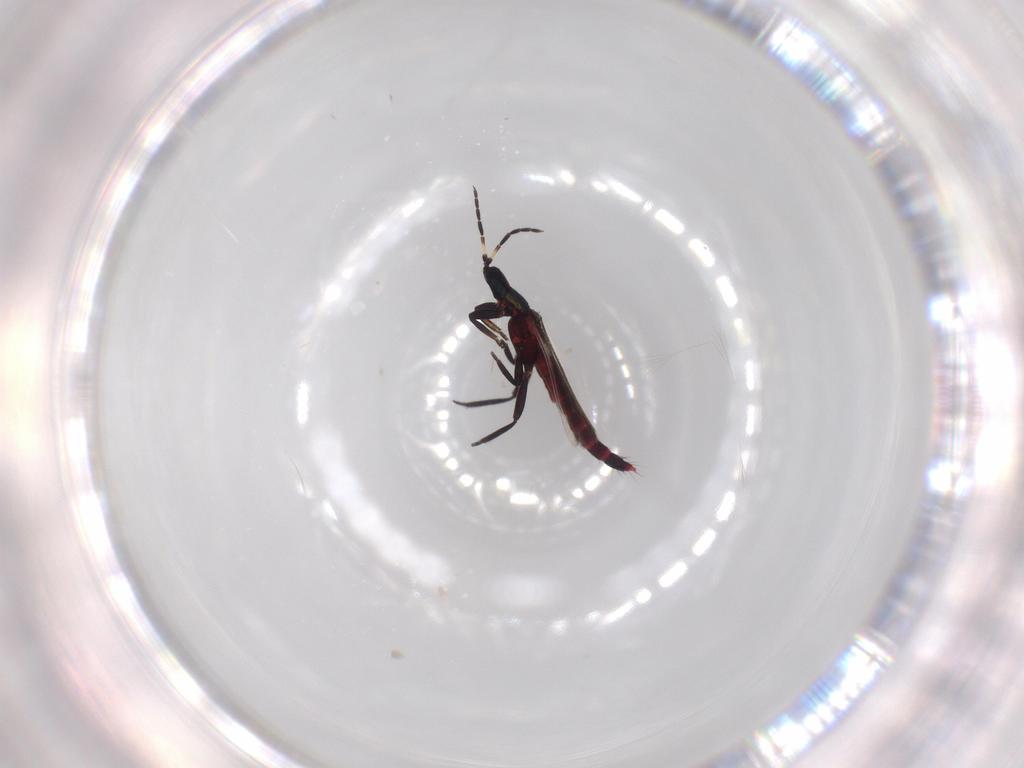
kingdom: Animalia
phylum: Arthropoda
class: Insecta
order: Thysanoptera
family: Aeolothripidae
